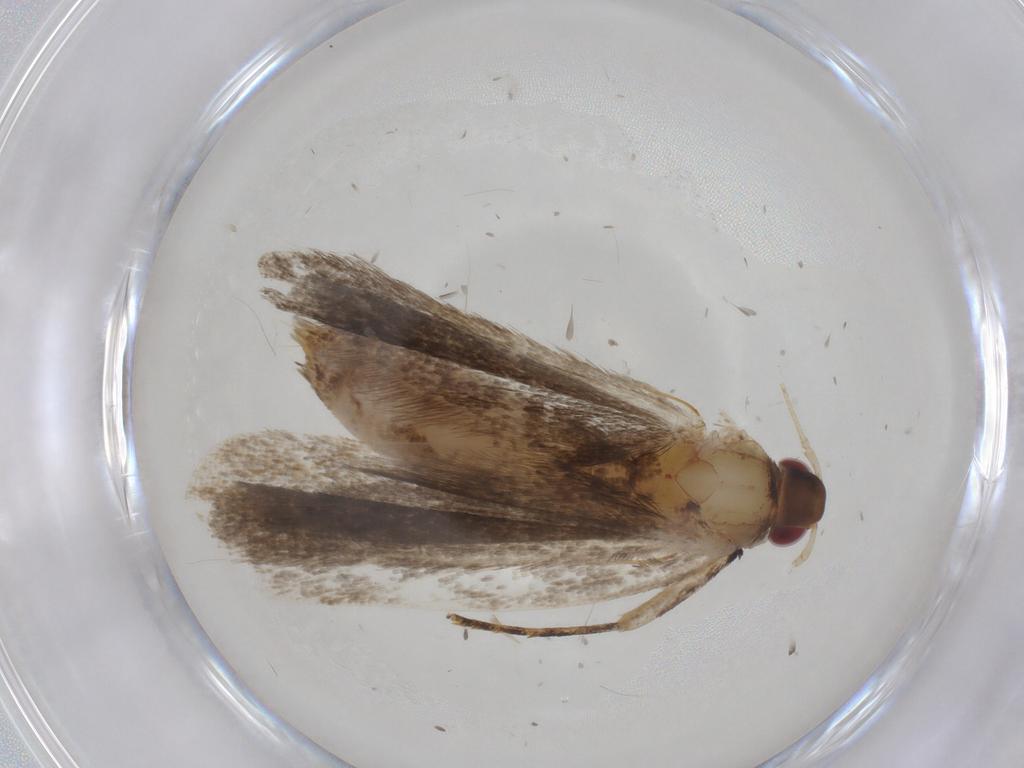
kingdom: Animalia
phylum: Arthropoda
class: Insecta
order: Lepidoptera
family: Gelechiidae
